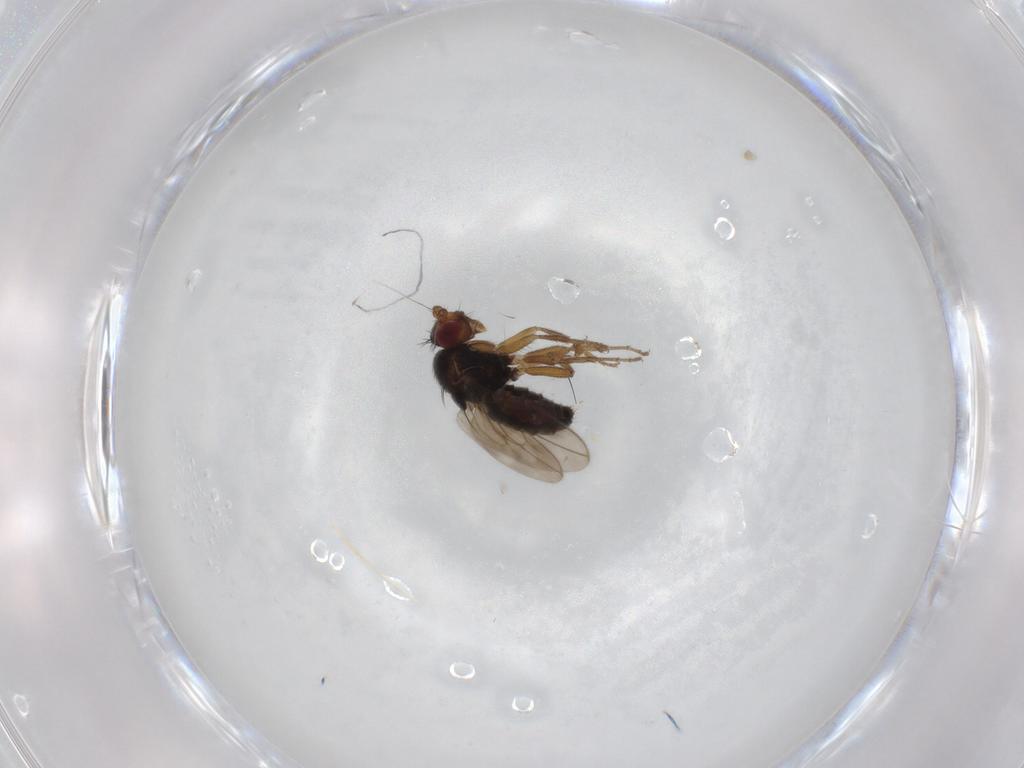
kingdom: Animalia
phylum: Arthropoda
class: Insecta
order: Diptera
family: Sphaeroceridae
